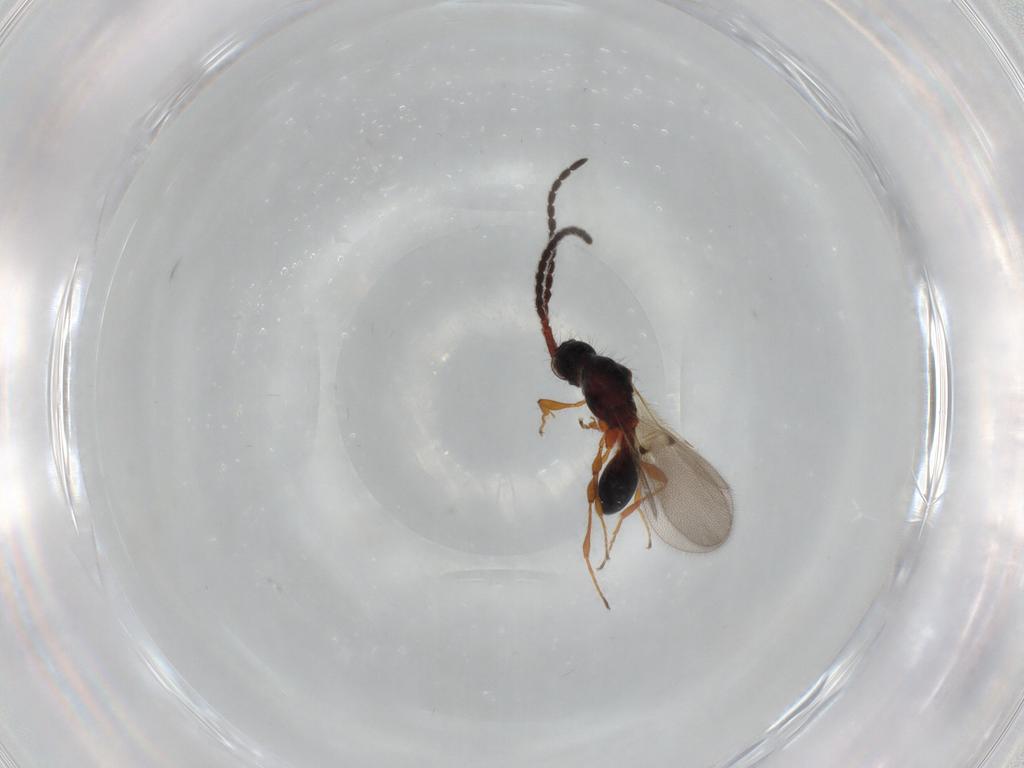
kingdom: Animalia
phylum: Arthropoda
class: Insecta
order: Hymenoptera
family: Diapriidae
